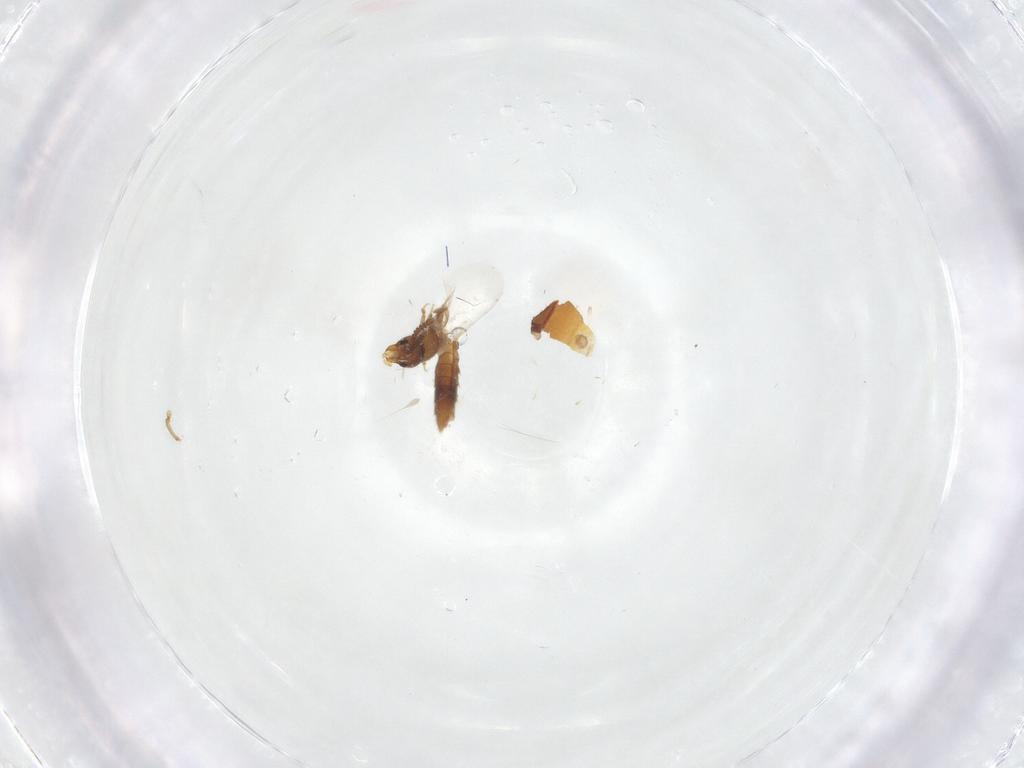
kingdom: Animalia
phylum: Arthropoda
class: Insecta
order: Coleoptera
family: Staphylinidae
